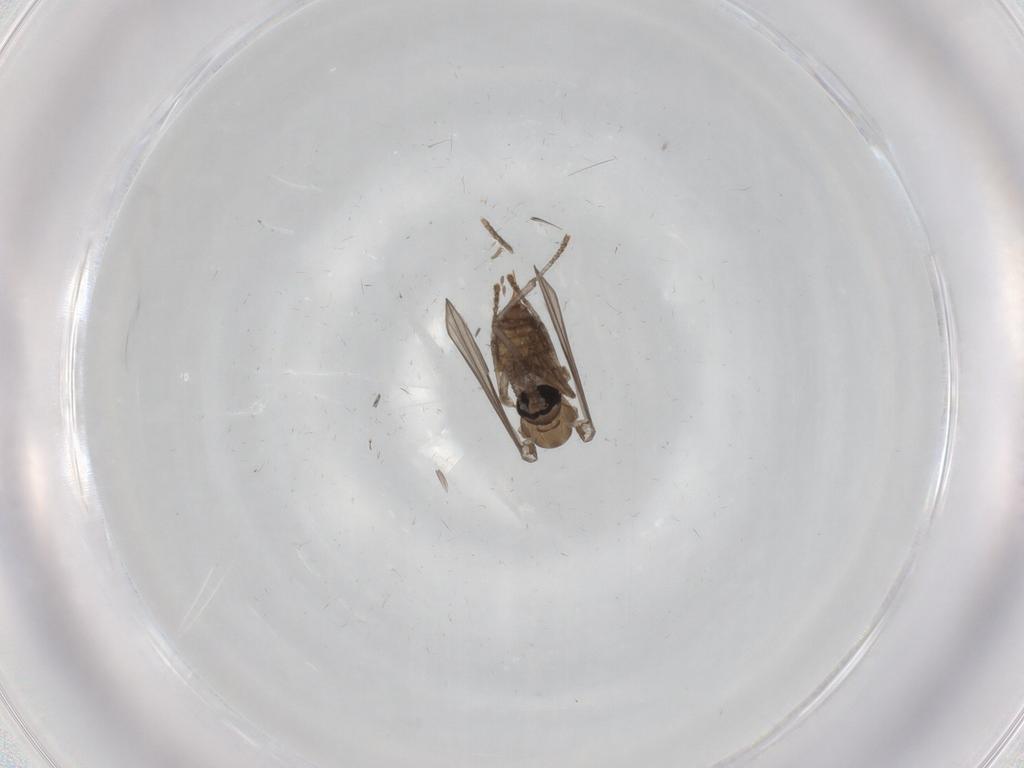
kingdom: Animalia
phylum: Arthropoda
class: Insecta
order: Diptera
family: Psychodidae
